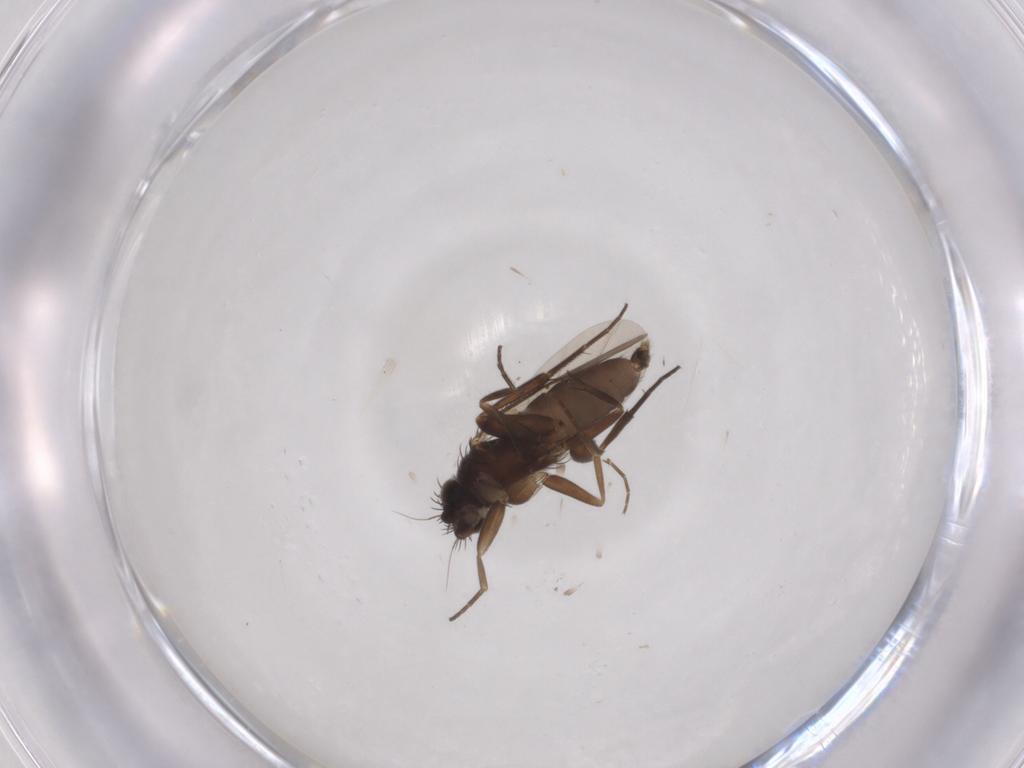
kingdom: Animalia
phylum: Arthropoda
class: Insecta
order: Diptera
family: Phoridae
